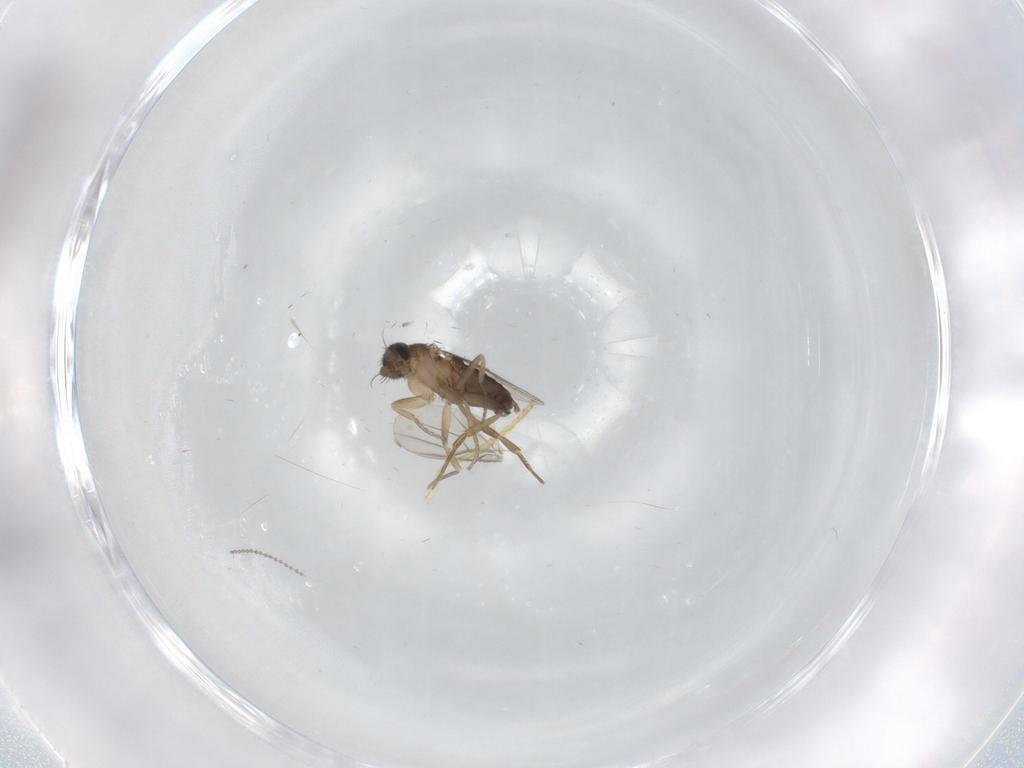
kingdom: Animalia
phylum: Arthropoda
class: Insecta
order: Diptera
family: Phoridae
